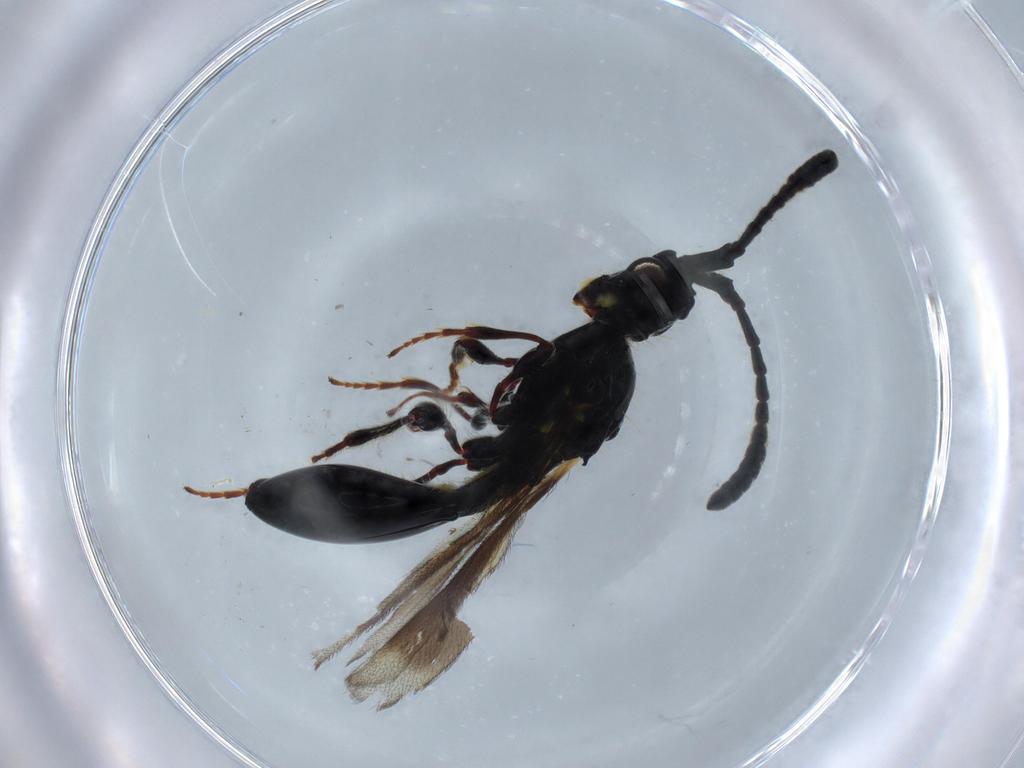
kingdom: Animalia
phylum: Arthropoda
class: Insecta
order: Hymenoptera
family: Diapriidae
